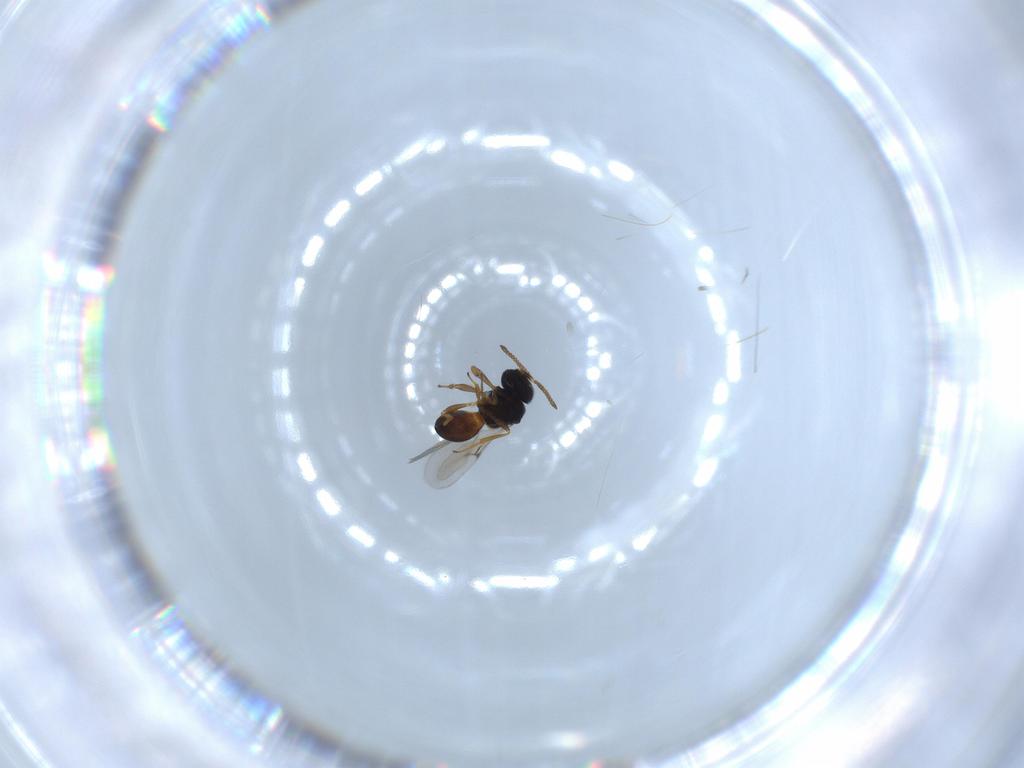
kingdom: Animalia
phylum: Arthropoda
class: Insecta
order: Hymenoptera
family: Scelionidae
